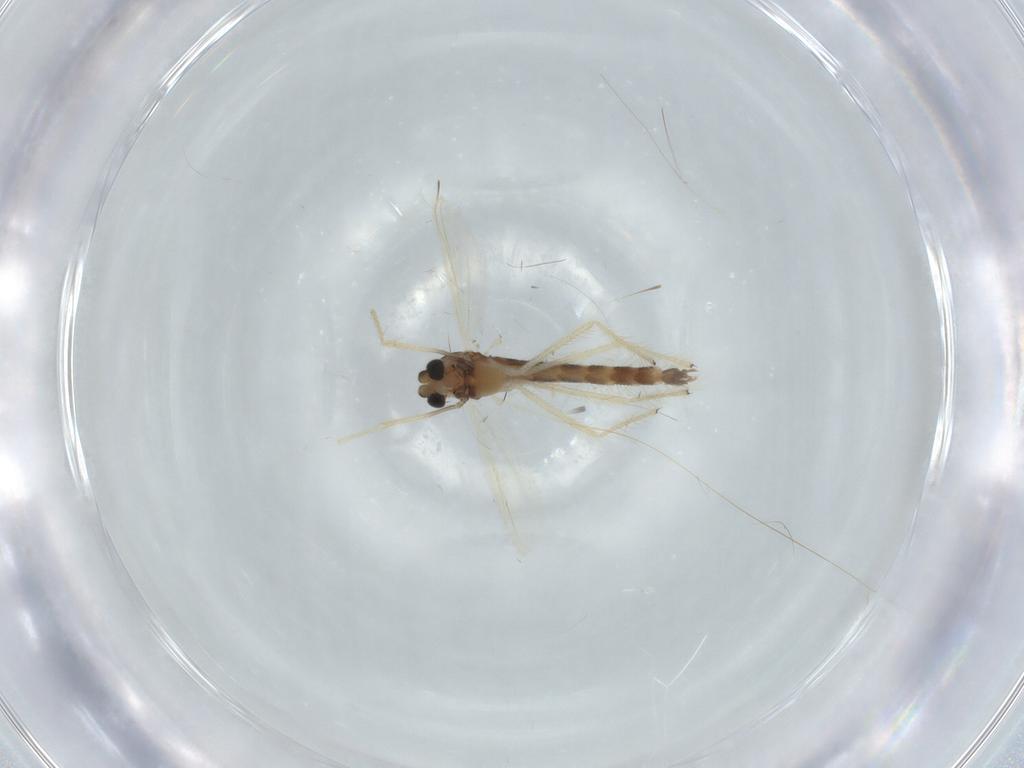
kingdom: Animalia
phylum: Arthropoda
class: Insecta
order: Diptera
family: Chironomidae
